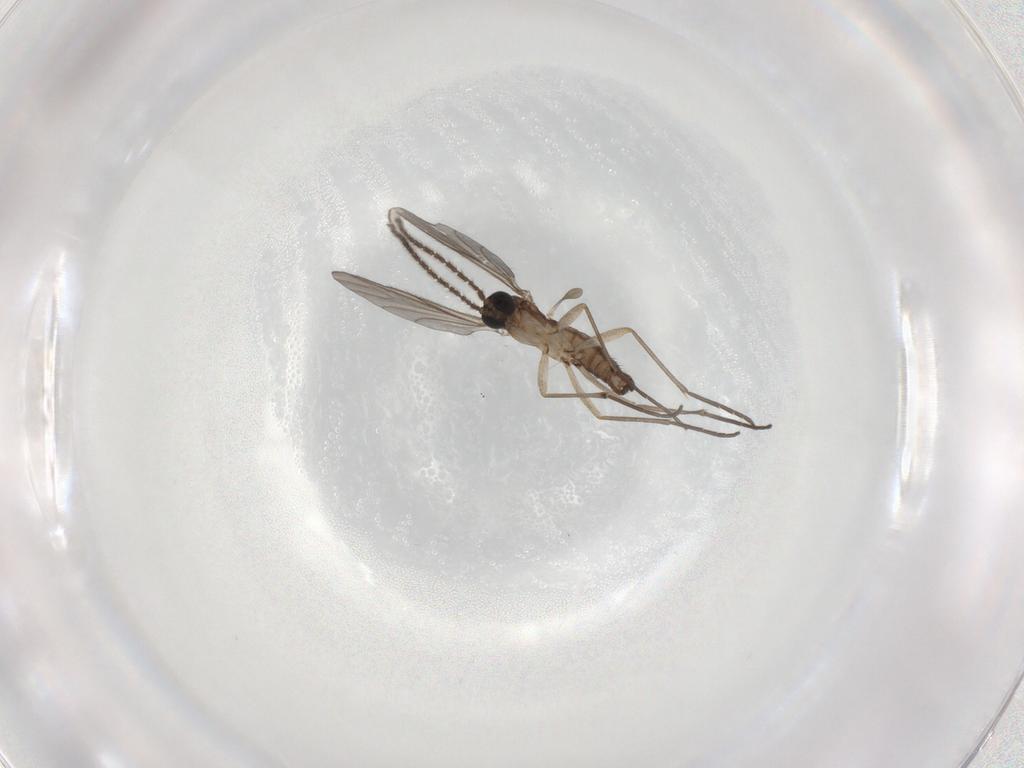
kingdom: Animalia
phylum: Arthropoda
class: Insecta
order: Diptera
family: Sciaridae
